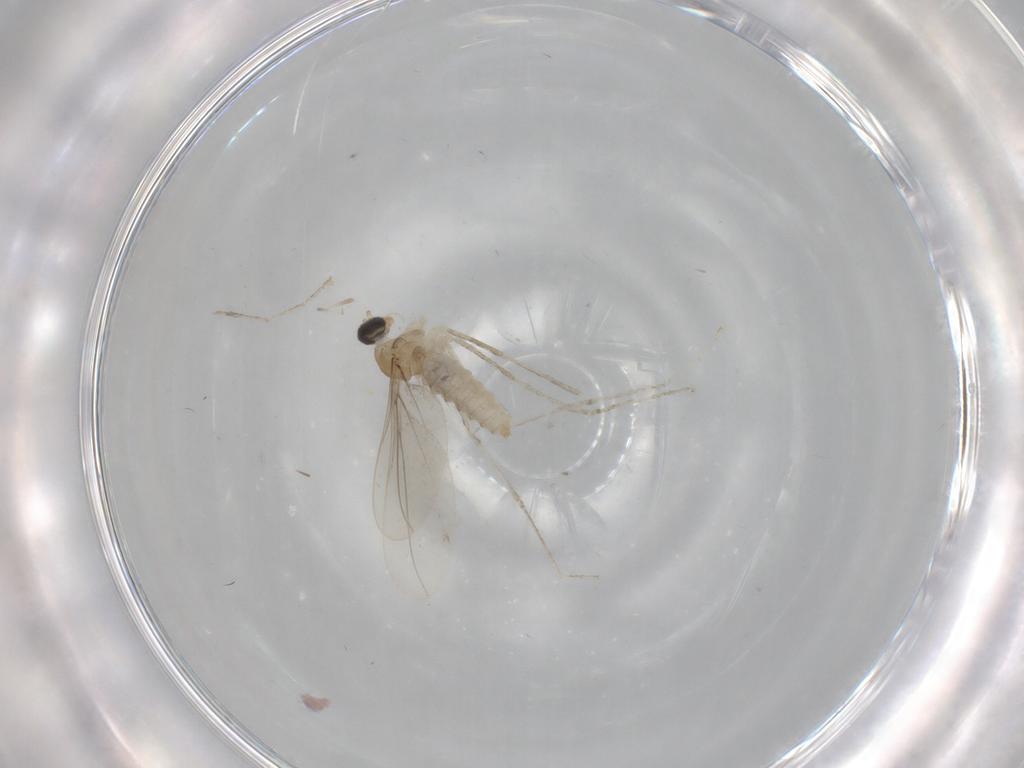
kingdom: Animalia
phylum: Arthropoda
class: Insecta
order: Diptera
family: Cecidomyiidae
